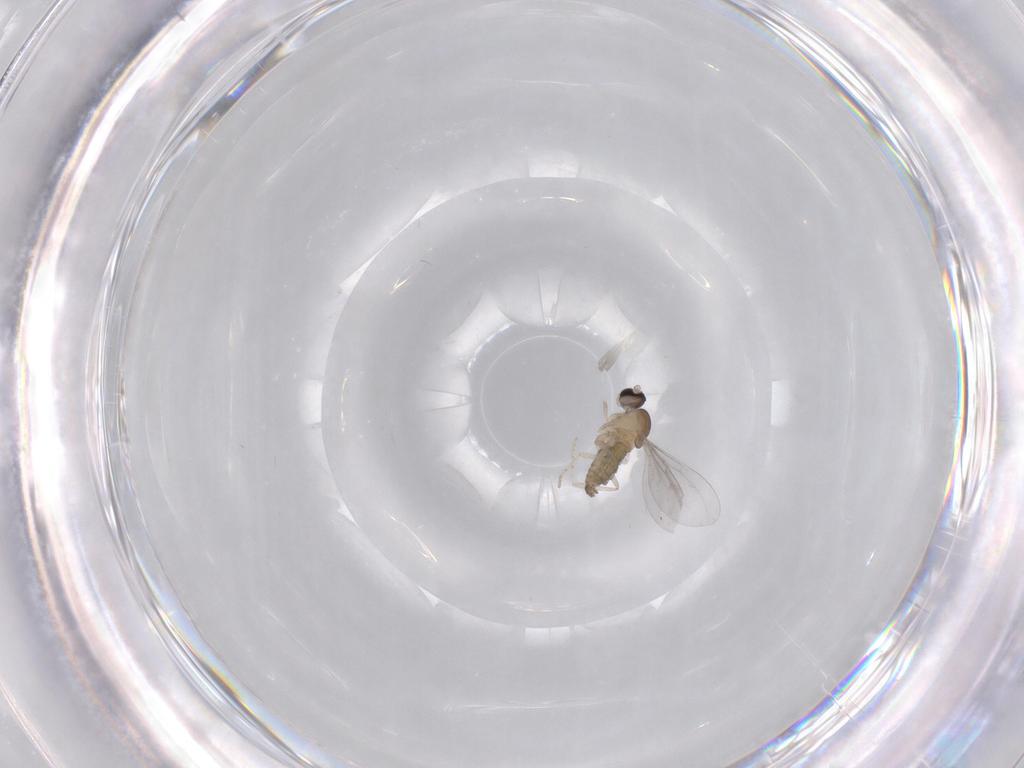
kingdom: Animalia
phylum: Arthropoda
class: Insecta
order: Diptera
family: Cecidomyiidae
